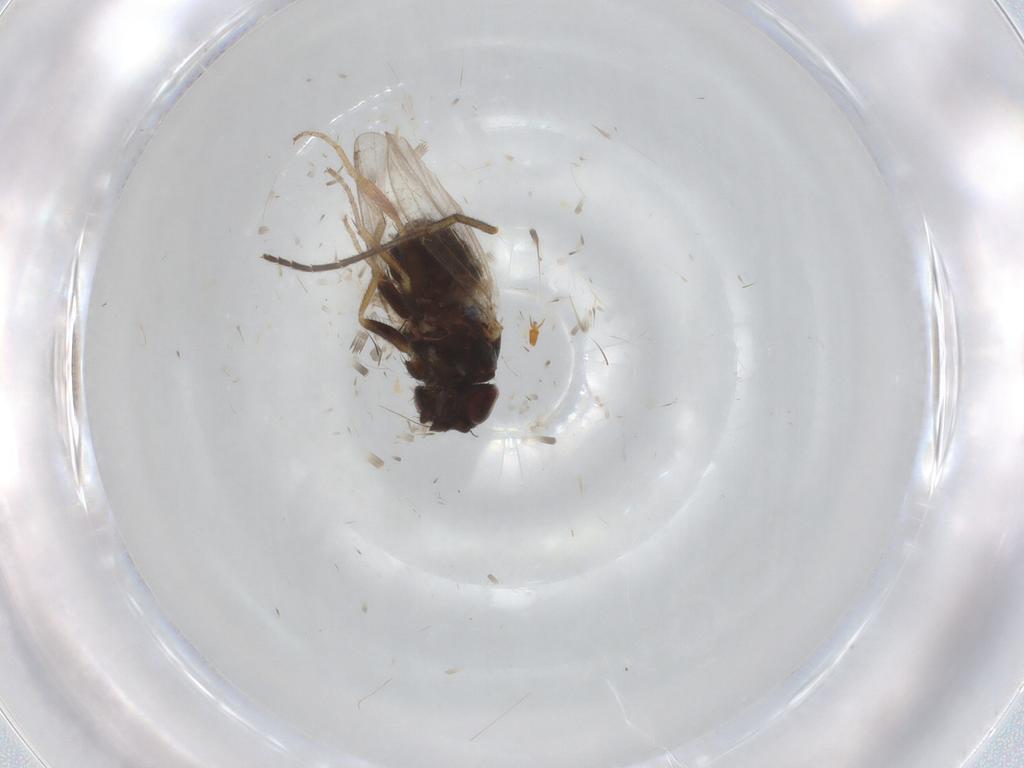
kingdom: Animalia
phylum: Arthropoda
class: Insecta
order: Diptera
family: Milichiidae
